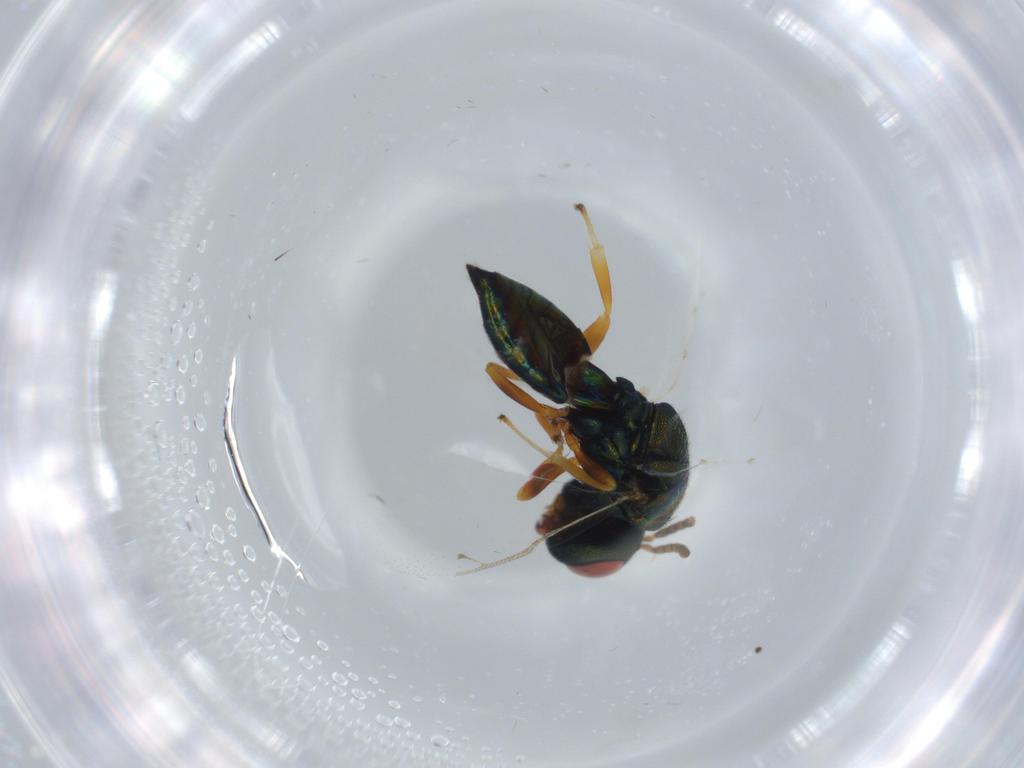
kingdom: Animalia
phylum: Arthropoda
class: Insecta
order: Hymenoptera
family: Pteromalidae
